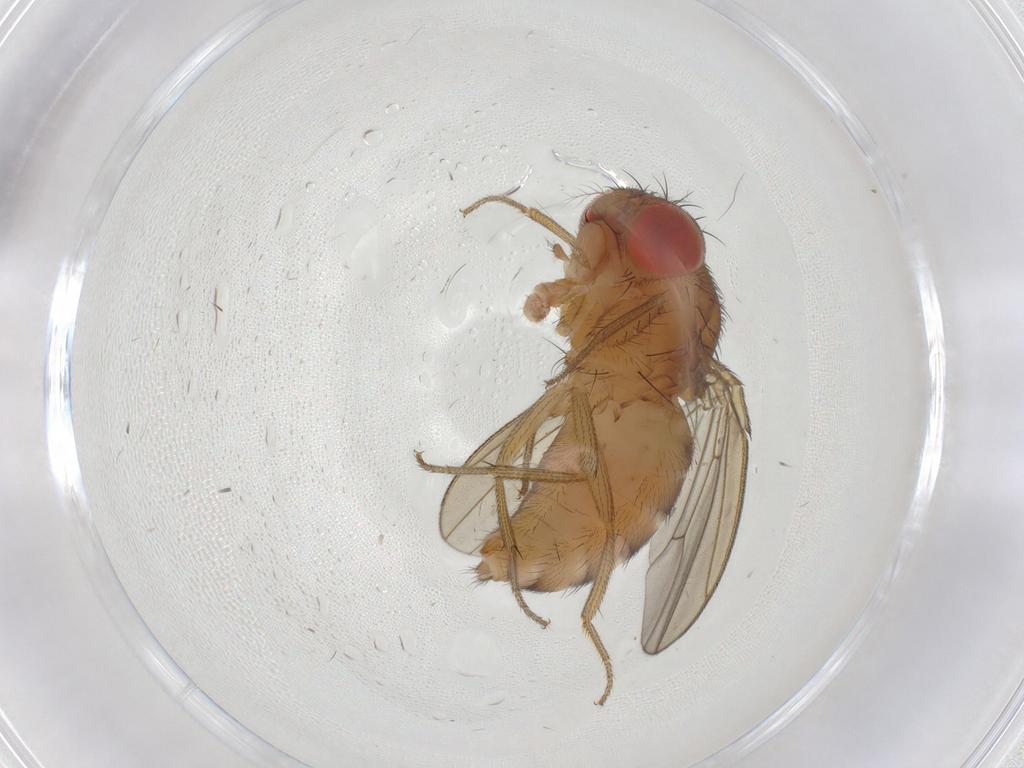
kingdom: Animalia
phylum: Arthropoda
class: Insecta
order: Diptera
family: Drosophilidae
